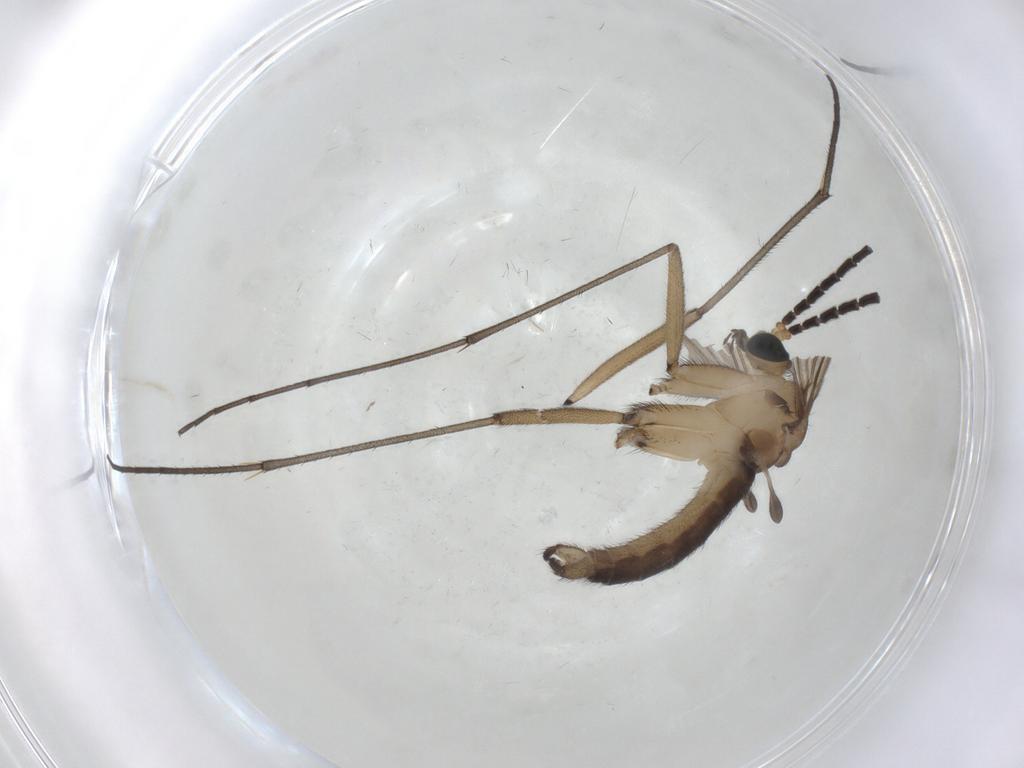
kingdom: Animalia
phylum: Arthropoda
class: Insecta
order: Diptera
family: Sciaridae
